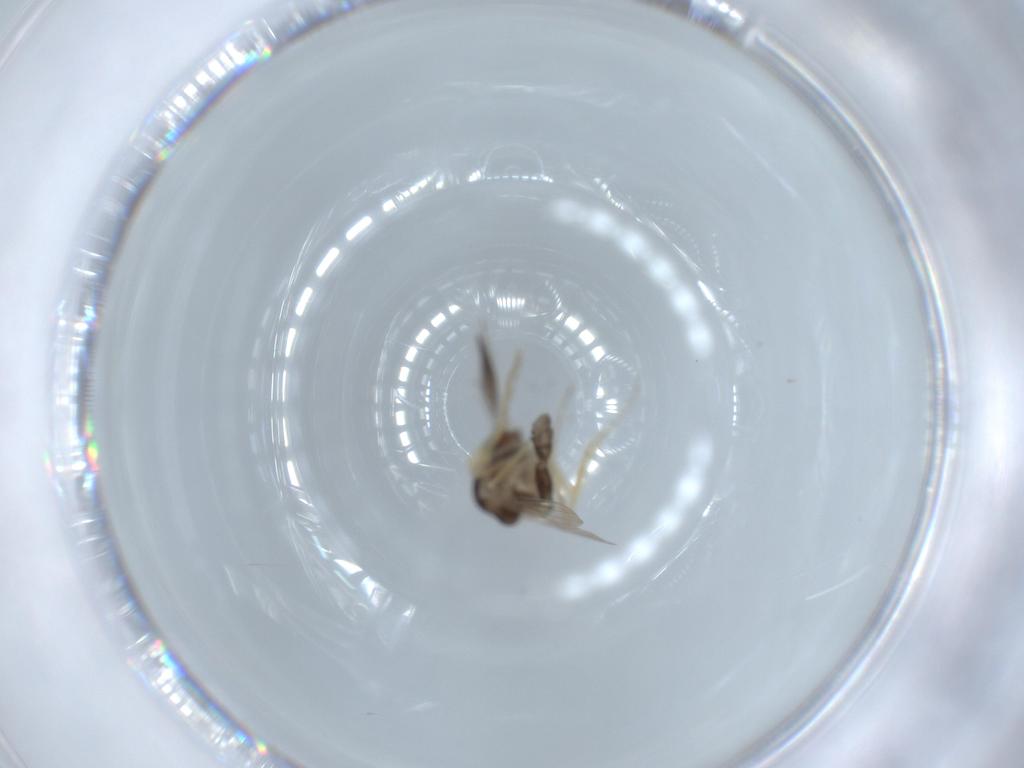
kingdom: Animalia
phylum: Arthropoda
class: Insecta
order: Diptera
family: Ceratopogonidae
